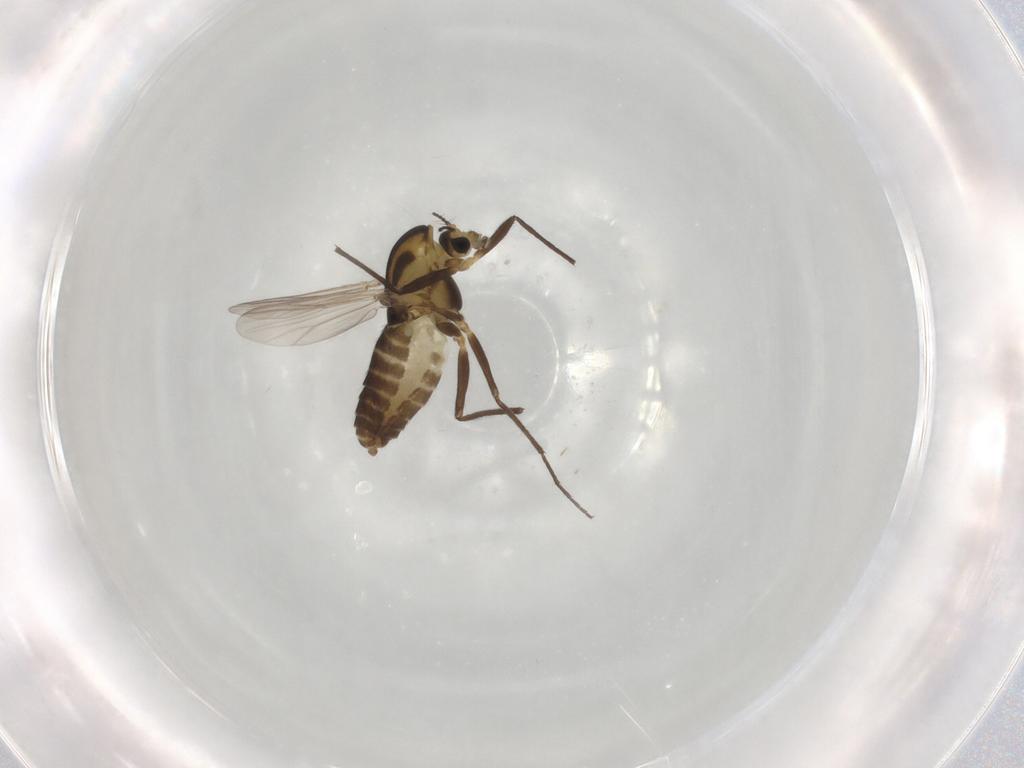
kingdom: Animalia
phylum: Arthropoda
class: Insecta
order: Diptera
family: Chironomidae
